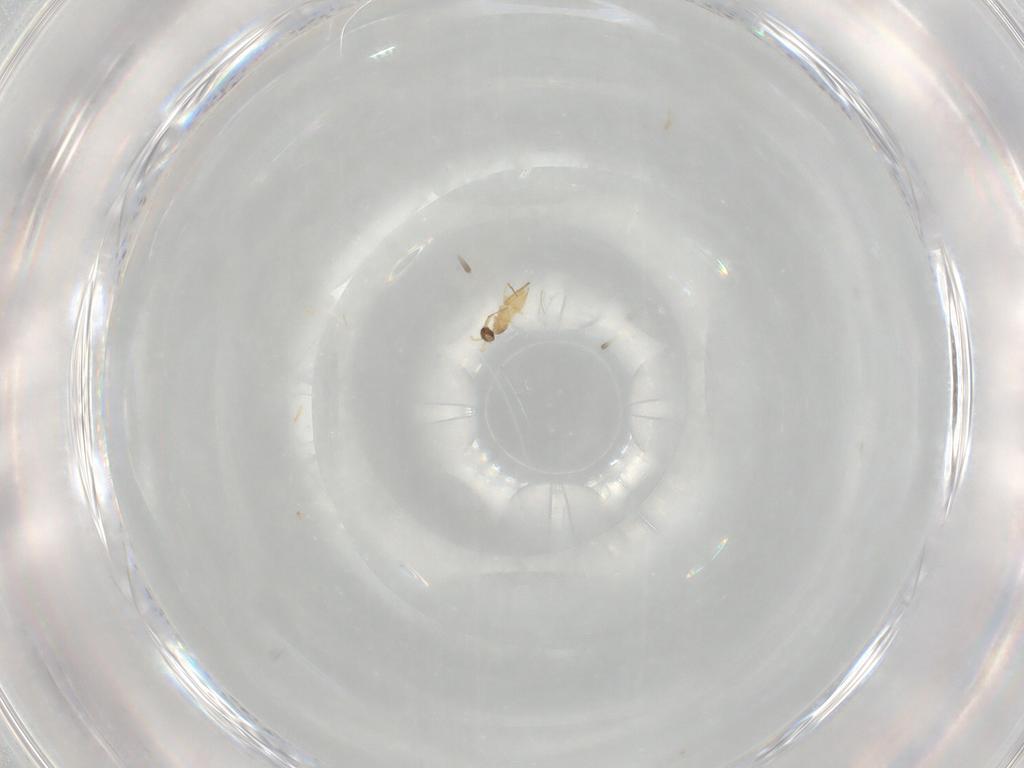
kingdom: Animalia
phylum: Arthropoda
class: Insecta
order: Hymenoptera
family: Mymaridae
